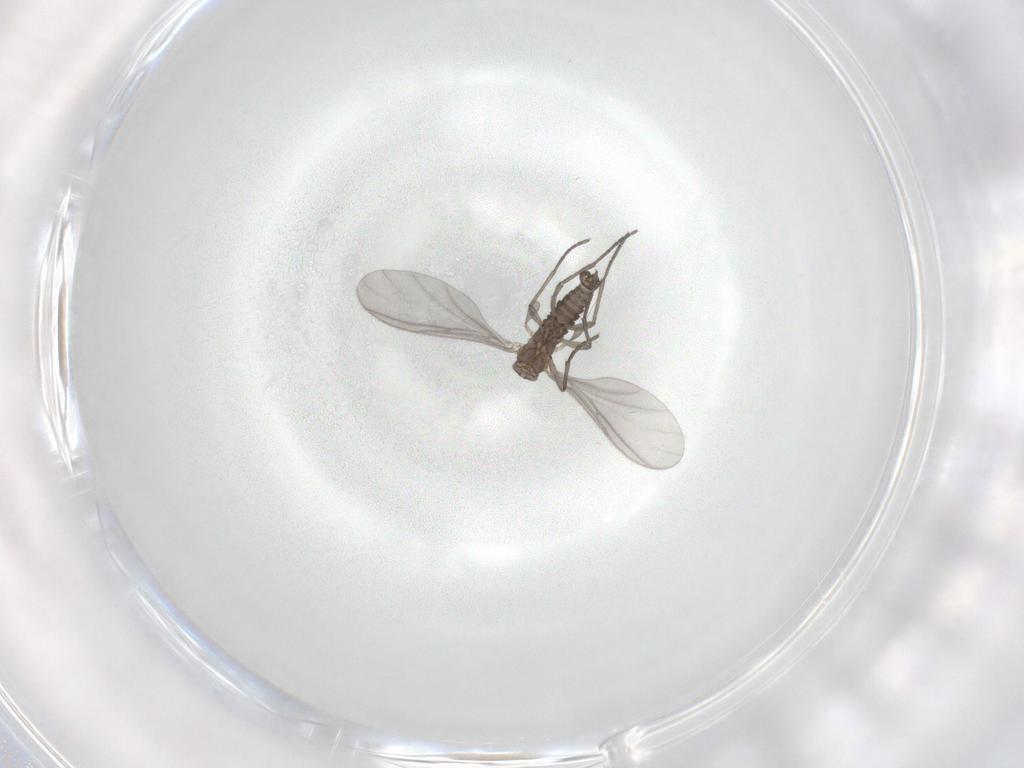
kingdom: Animalia
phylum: Arthropoda
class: Insecta
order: Diptera
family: Sciaridae
